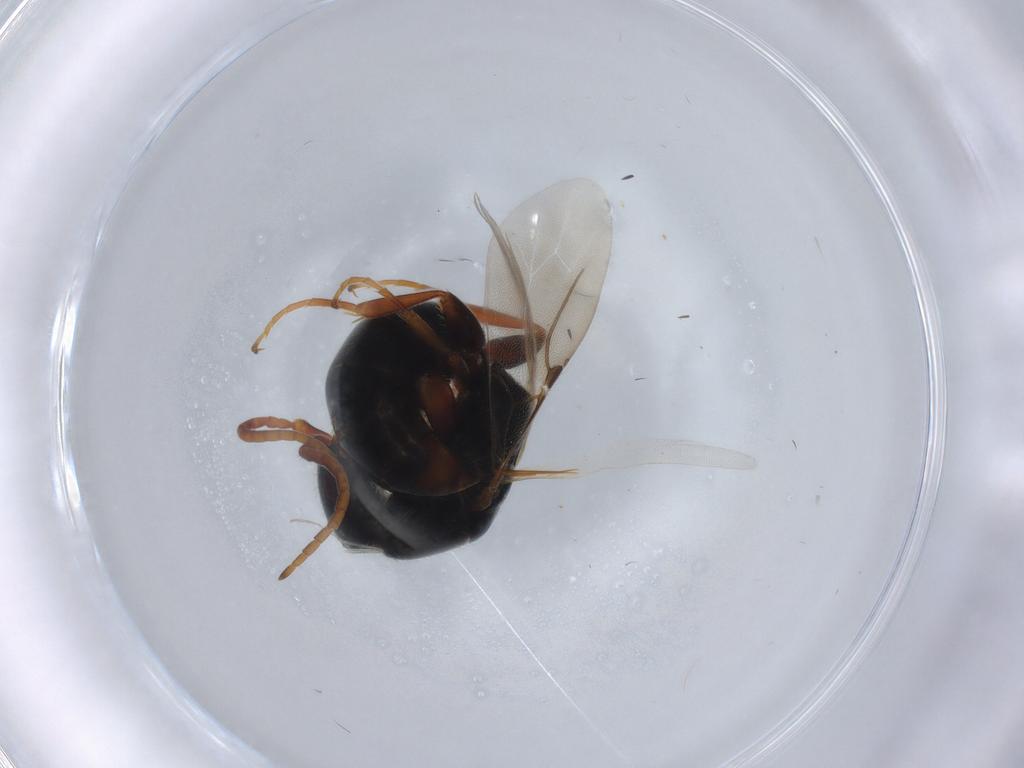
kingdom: Animalia
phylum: Arthropoda
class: Insecta
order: Hymenoptera
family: Bethylidae
